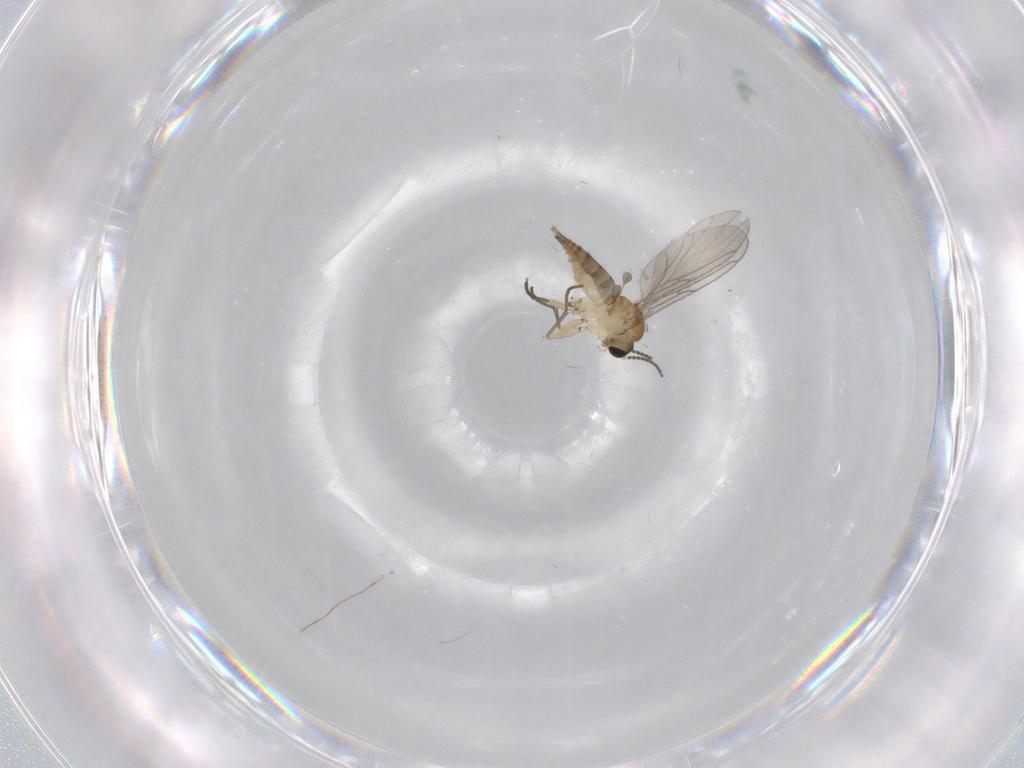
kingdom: Animalia
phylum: Arthropoda
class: Insecta
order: Diptera
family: Sciaridae
